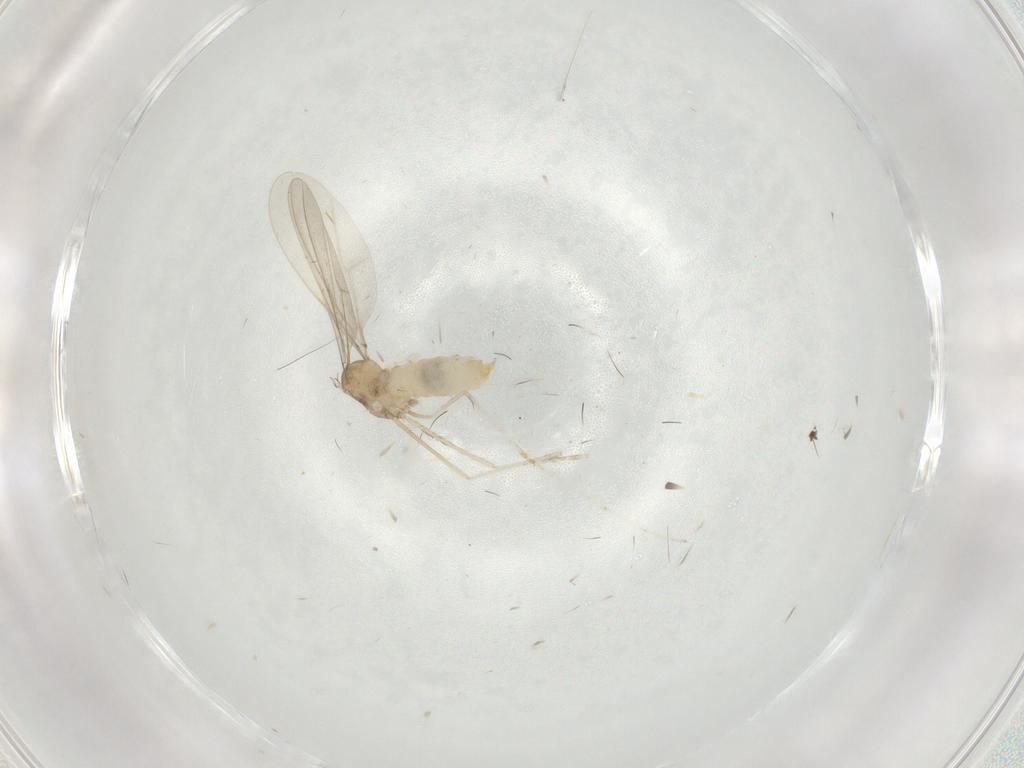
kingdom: Animalia
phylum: Arthropoda
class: Insecta
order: Diptera
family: Cecidomyiidae
